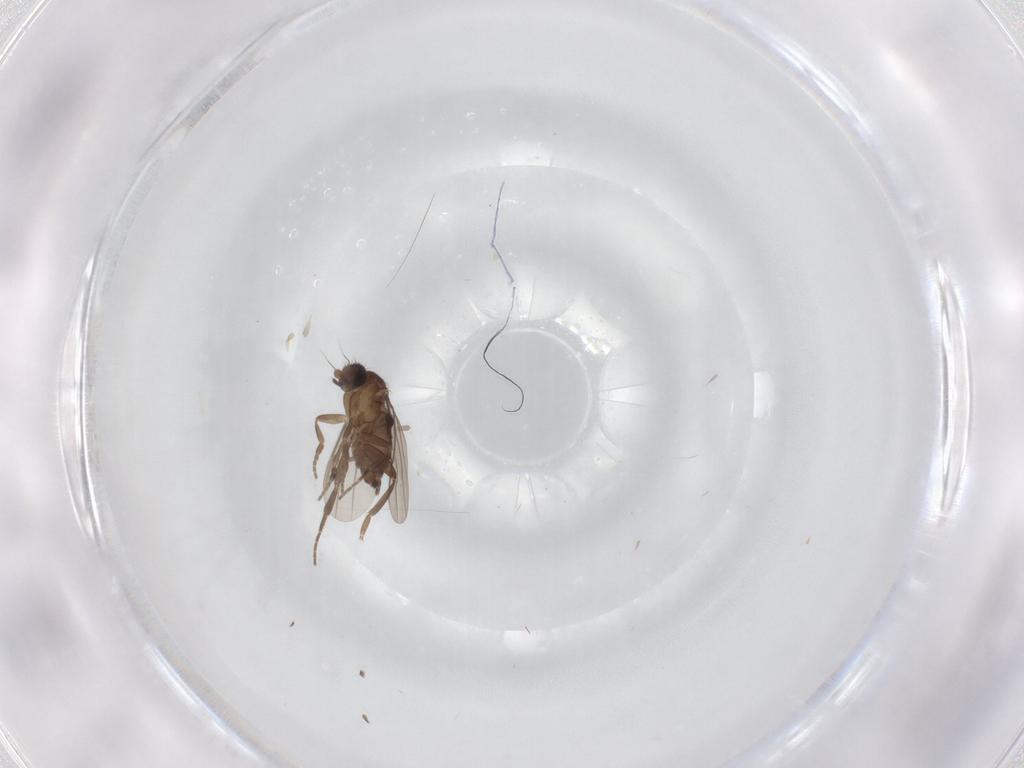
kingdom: Animalia
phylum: Arthropoda
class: Insecta
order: Diptera
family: Phoridae
